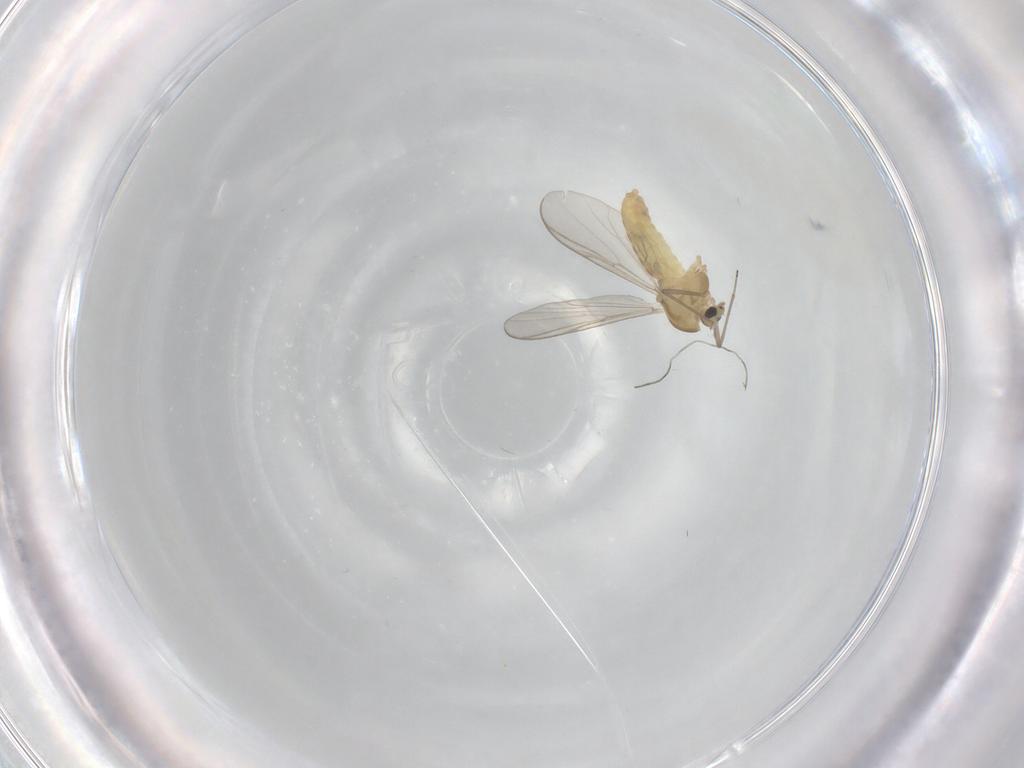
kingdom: Animalia
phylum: Arthropoda
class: Insecta
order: Diptera
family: Chironomidae
